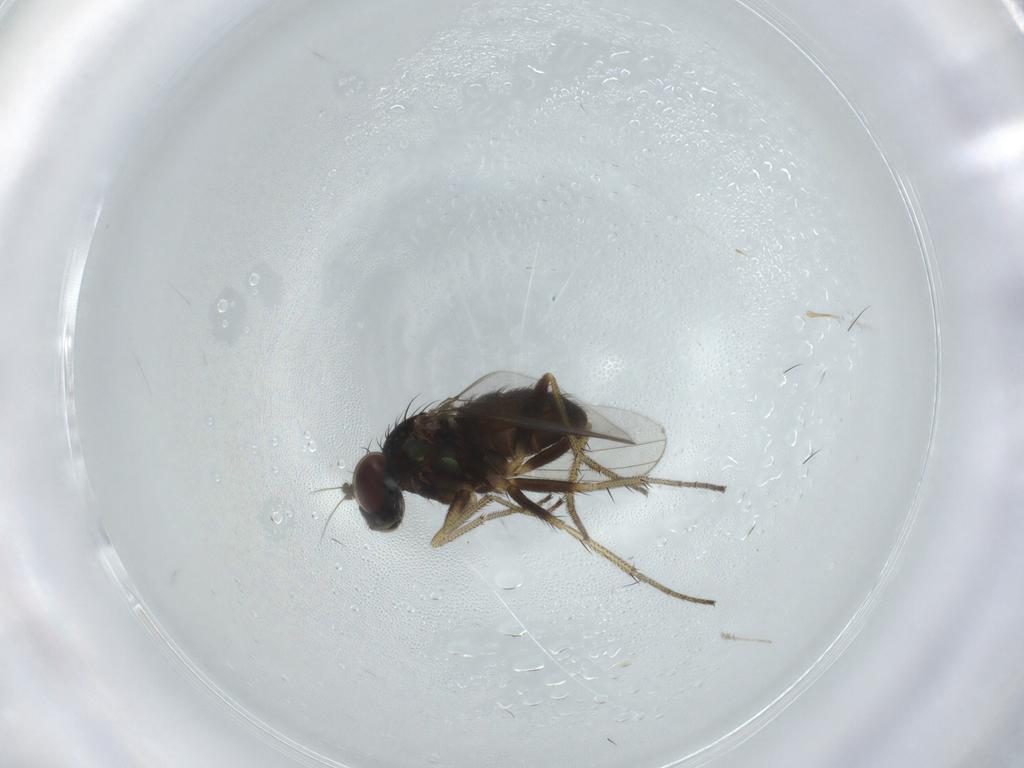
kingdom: Animalia
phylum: Arthropoda
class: Insecta
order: Diptera
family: Mycetophilidae
